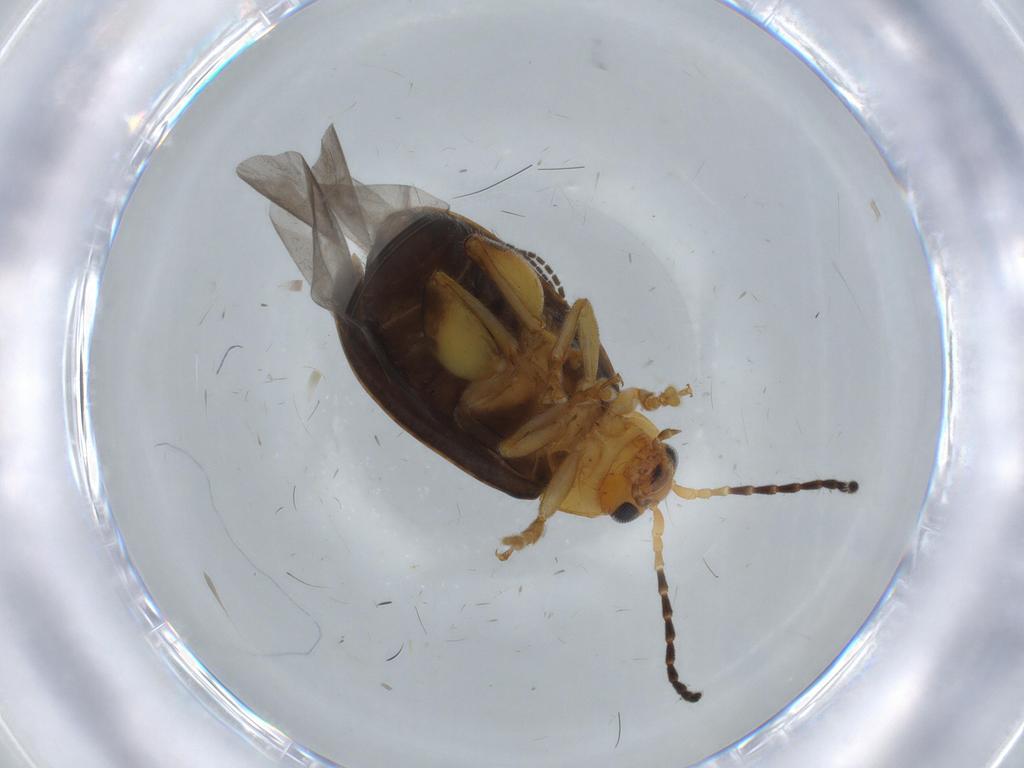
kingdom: Animalia
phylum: Arthropoda
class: Insecta
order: Coleoptera
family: Chrysomelidae
